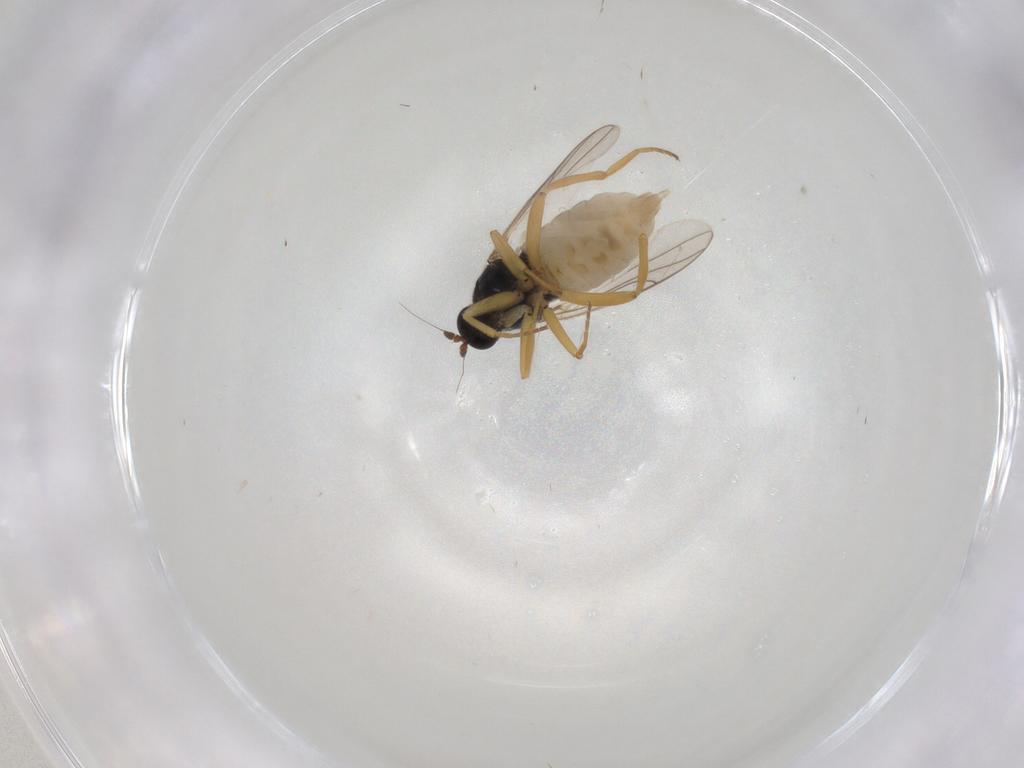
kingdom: Animalia
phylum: Arthropoda
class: Insecta
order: Diptera
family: Hybotidae
